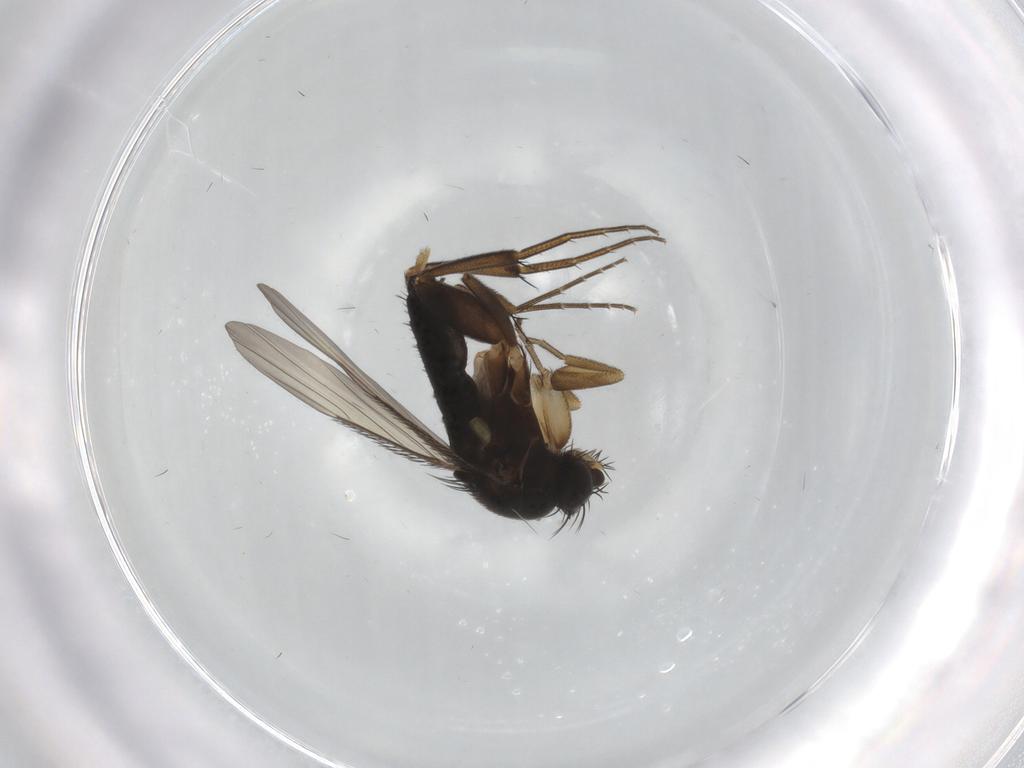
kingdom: Animalia
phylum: Arthropoda
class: Insecta
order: Diptera
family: Phoridae
